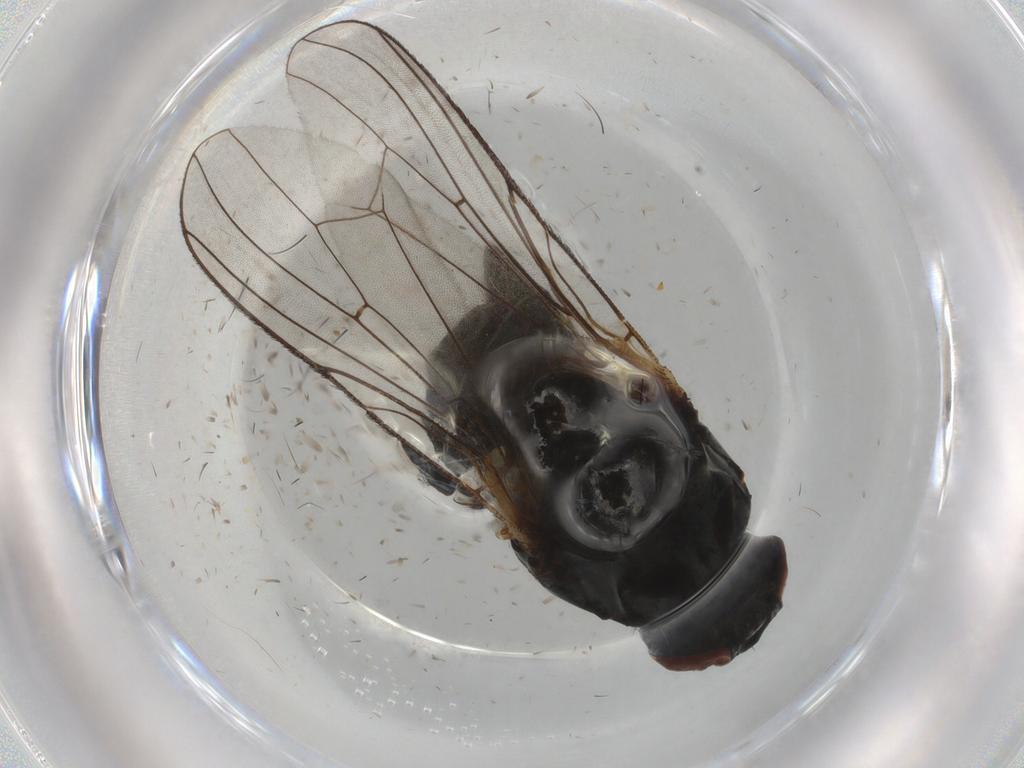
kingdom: Animalia
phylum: Arthropoda
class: Insecta
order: Diptera
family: Anthomyiidae
